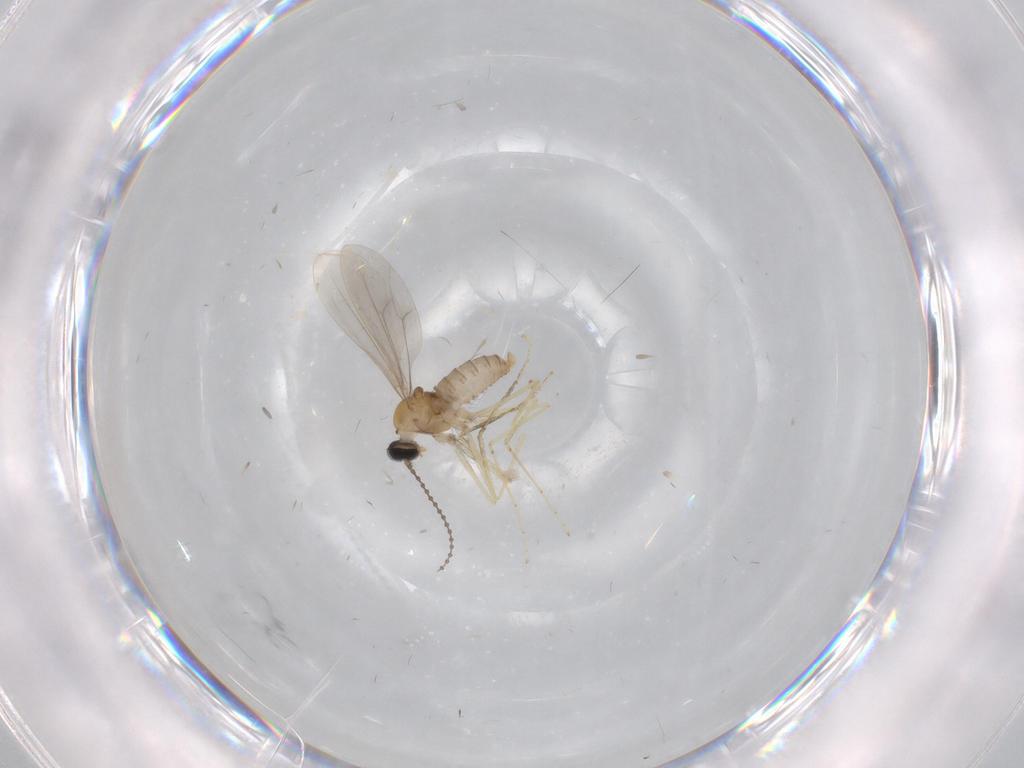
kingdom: Animalia
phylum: Arthropoda
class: Insecta
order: Diptera
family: Cecidomyiidae
